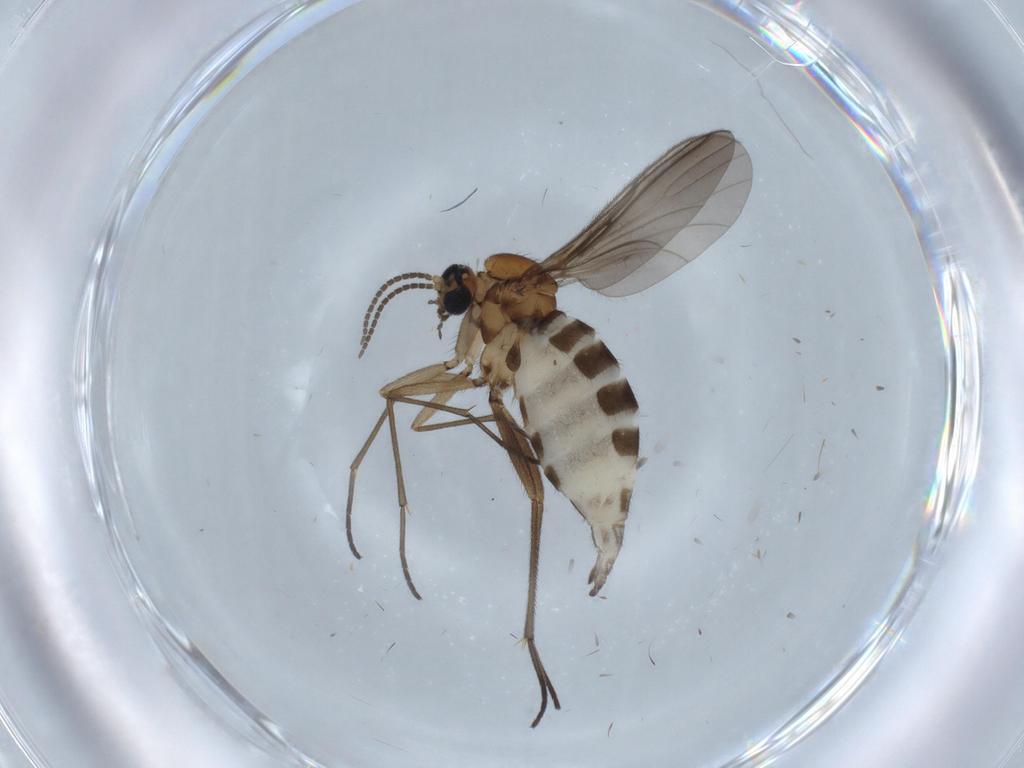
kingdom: Animalia
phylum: Arthropoda
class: Insecta
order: Diptera
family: Sciaridae
